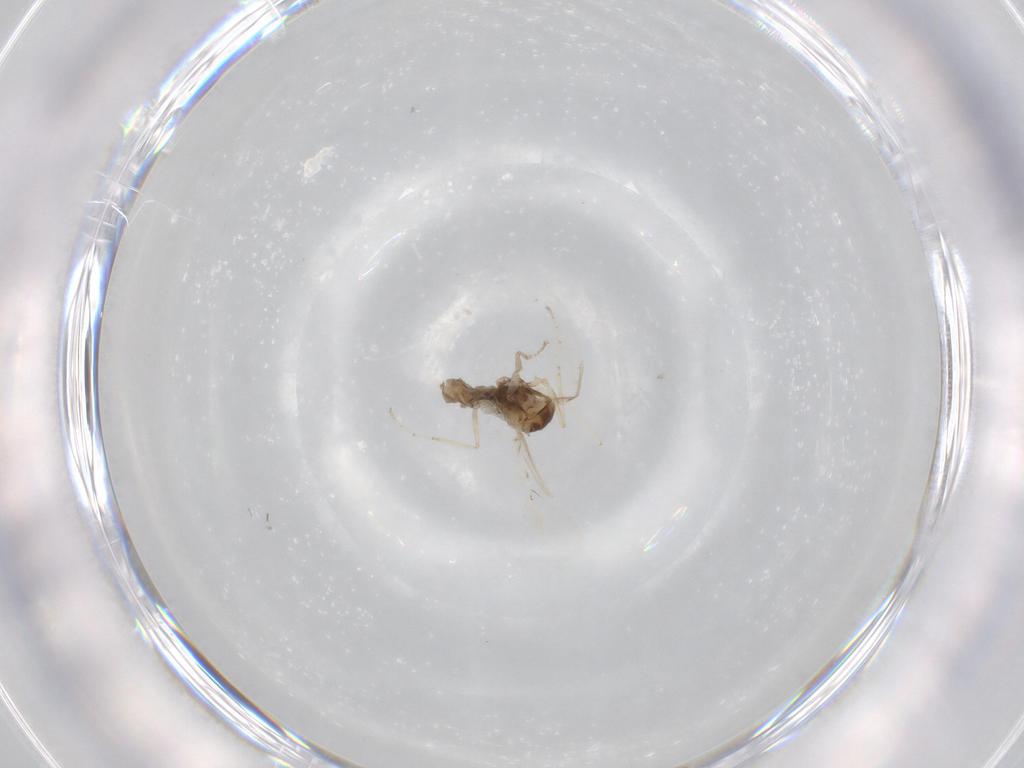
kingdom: Animalia
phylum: Arthropoda
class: Insecta
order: Diptera
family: Cecidomyiidae
